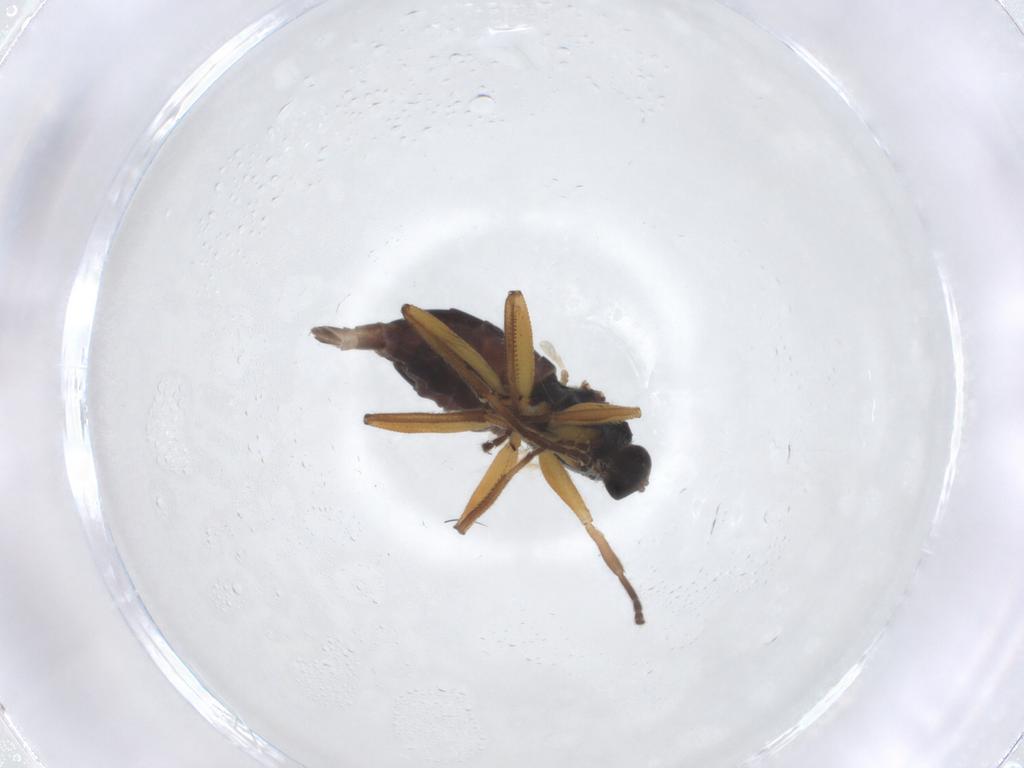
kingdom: Animalia
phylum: Arthropoda
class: Insecta
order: Diptera
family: Hybotidae
